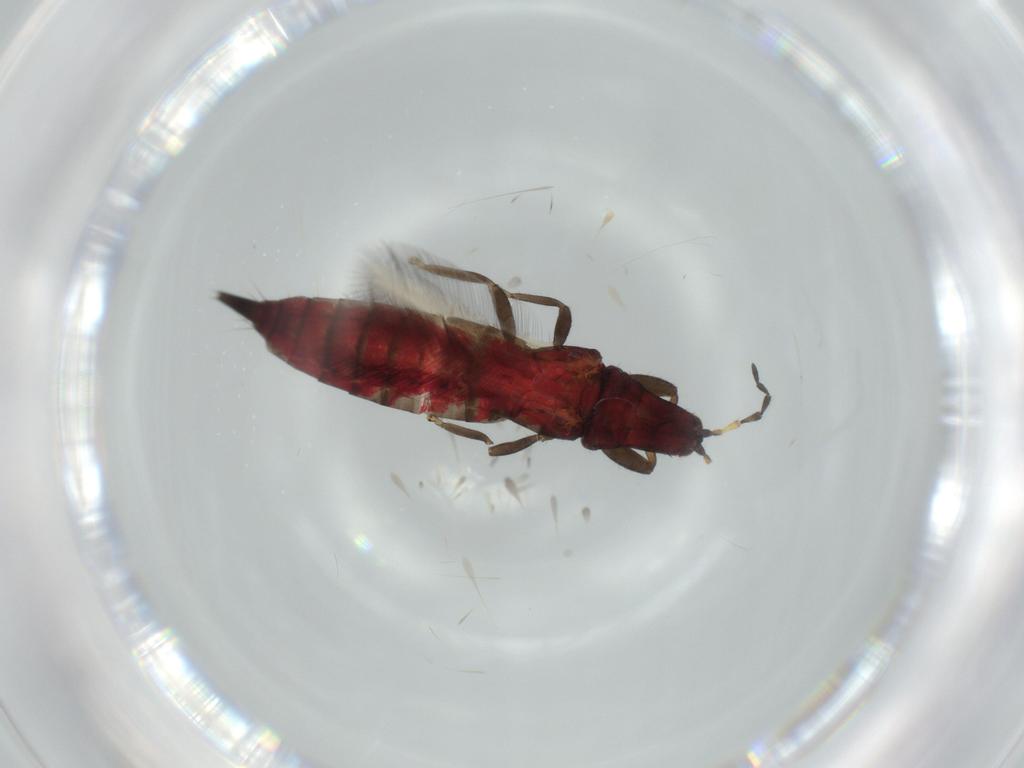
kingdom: Animalia
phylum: Arthropoda
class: Insecta
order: Thysanoptera
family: Phlaeothripidae
